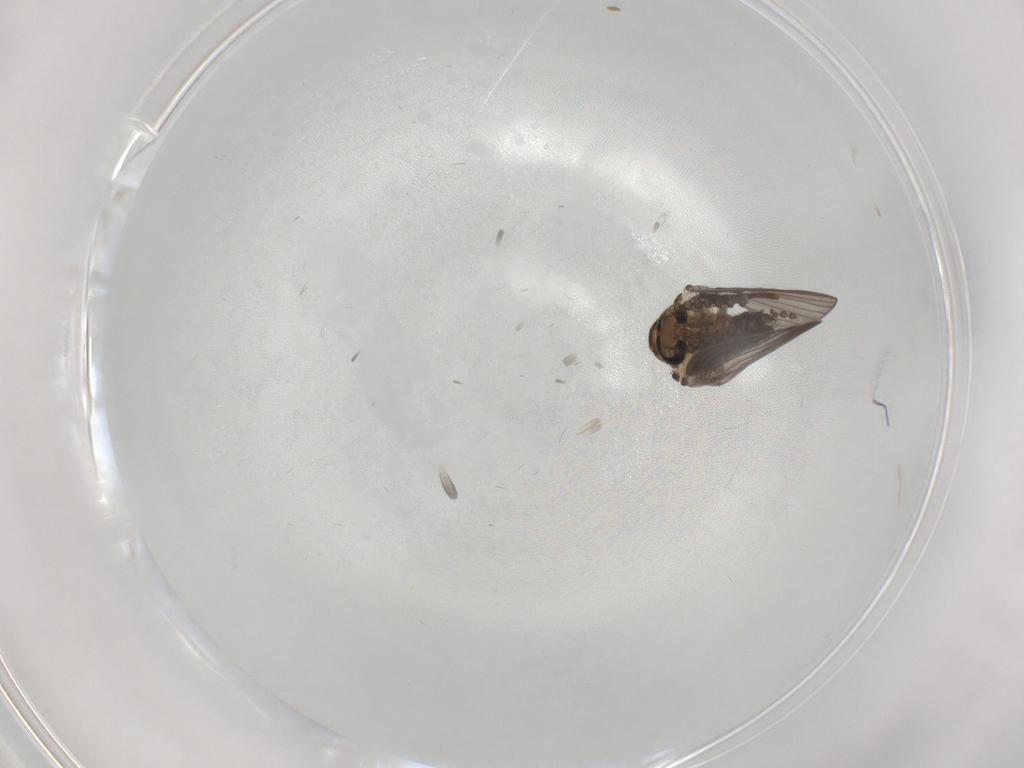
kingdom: Animalia
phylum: Arthropoda
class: Insecta
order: Diptera
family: Psychodidae
